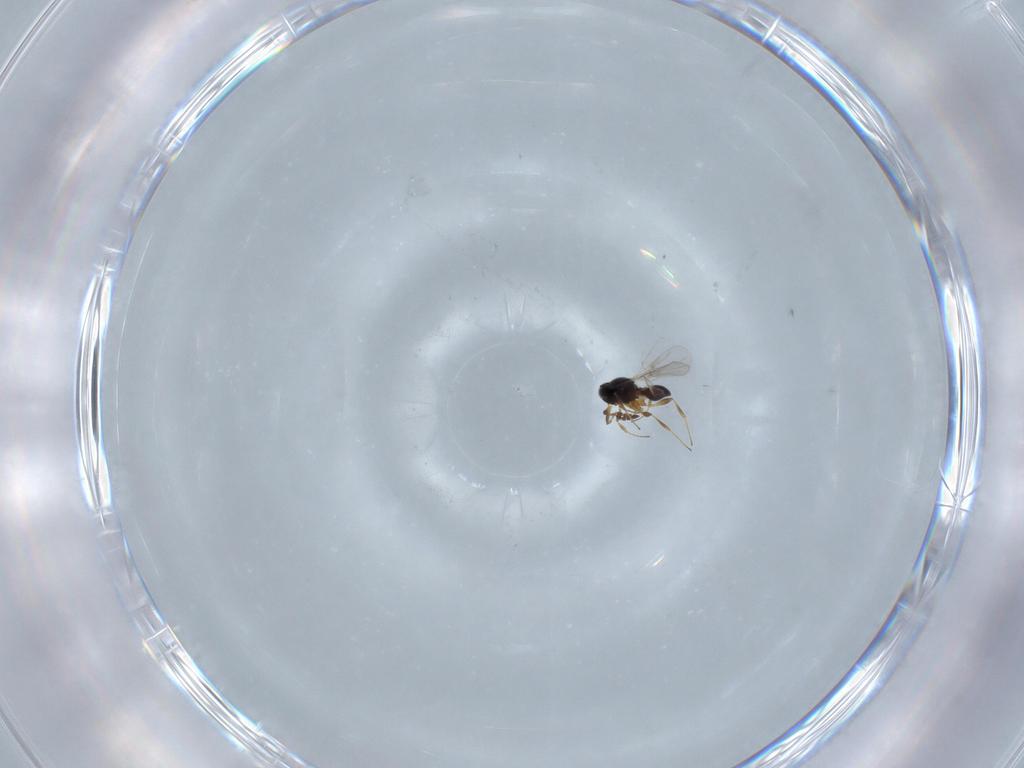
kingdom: Animalia
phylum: Arthropoda
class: Insecta
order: Hymenoptera
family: Platygastridae
